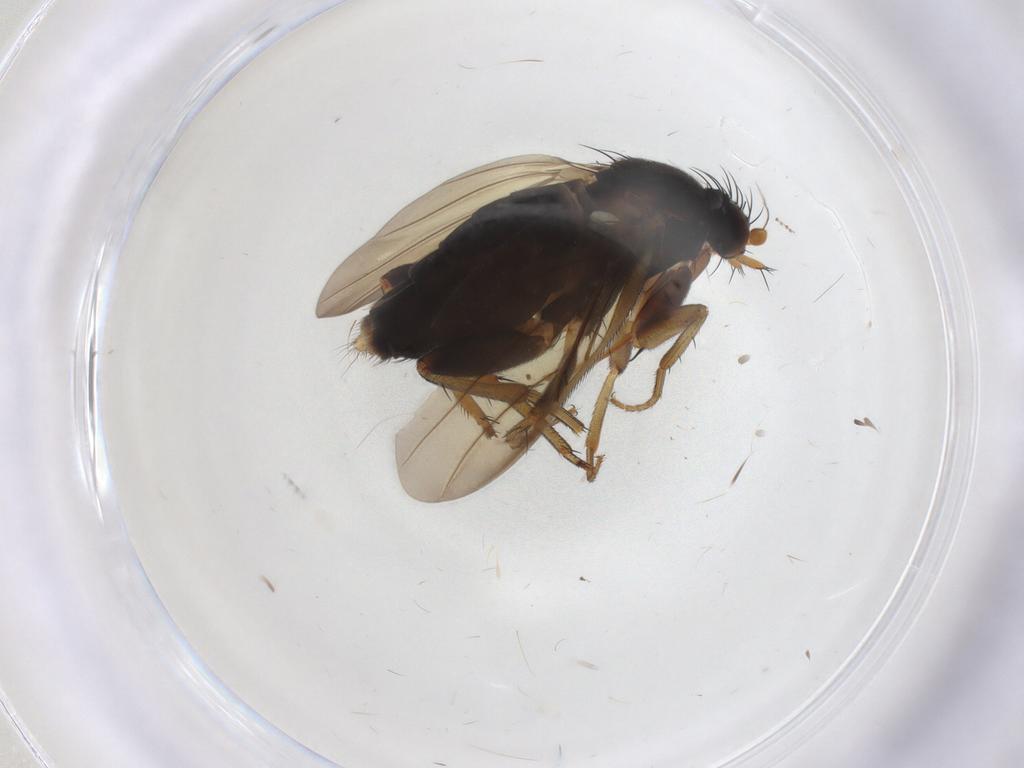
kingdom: Animalia
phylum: Arthropoda
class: Insecta
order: Diptera
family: Phoridae
